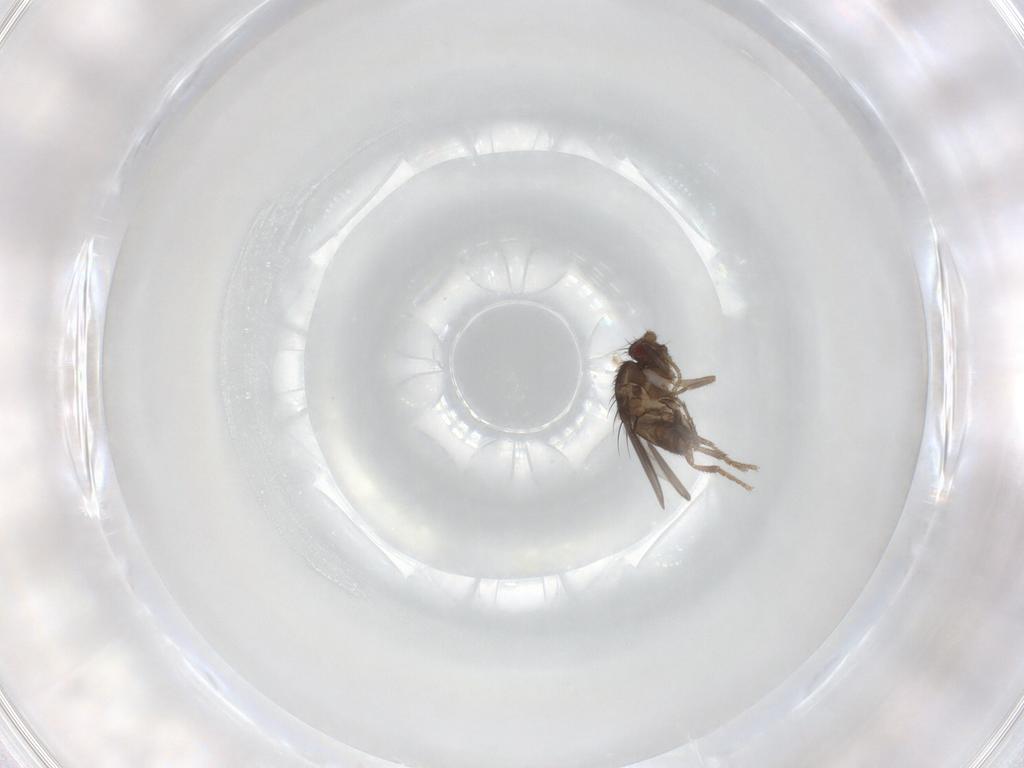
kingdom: Animalia
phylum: Arthropoda
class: Insecta
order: Diptera
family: Sphaeroceridae
